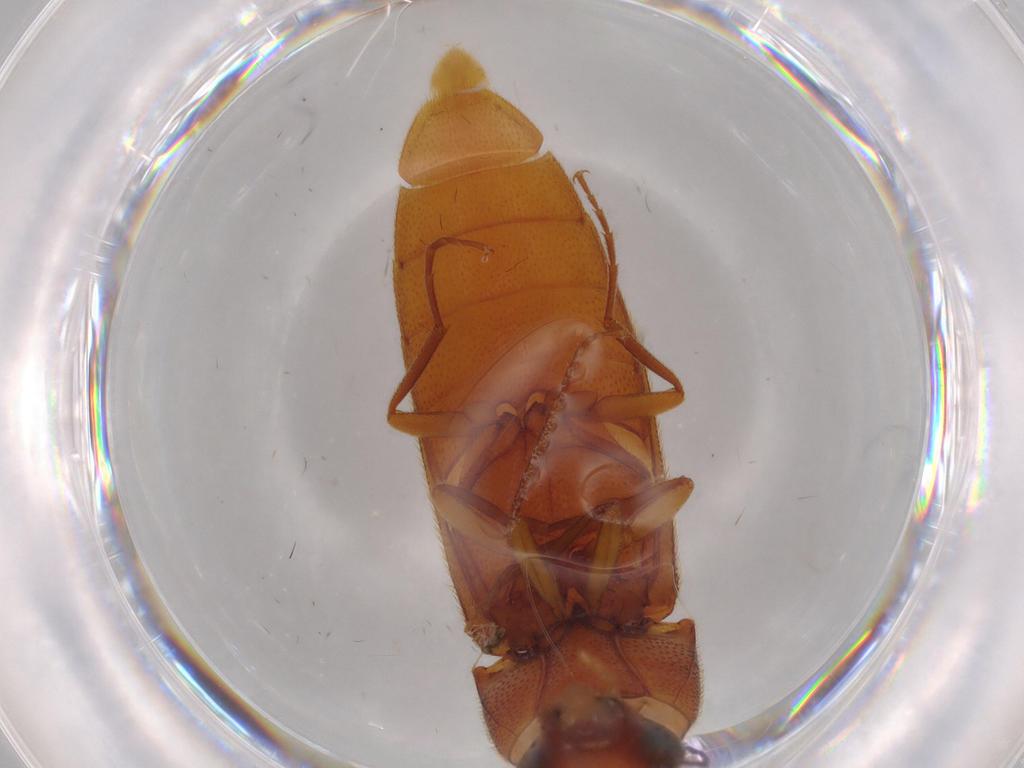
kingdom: Animalia
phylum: Arthropoda
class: Insecta
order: Coleoptera
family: Elateridae
